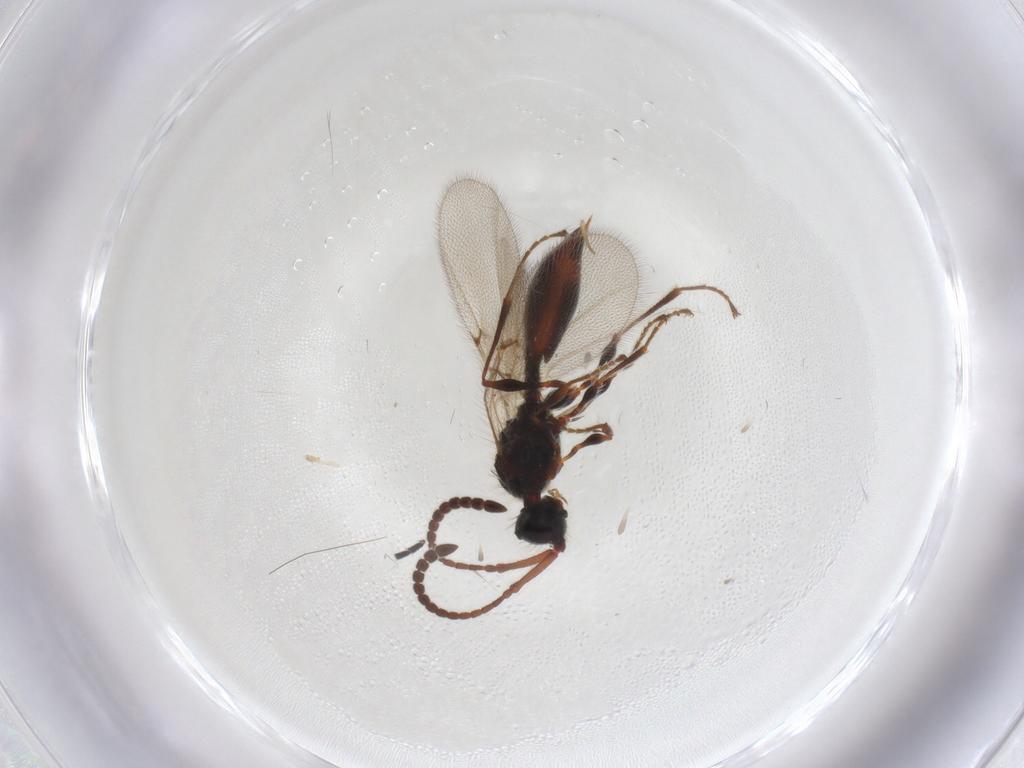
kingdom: Animalia
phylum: Arthropoda
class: Insecta
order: Hymenoptera
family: Diapriidae
